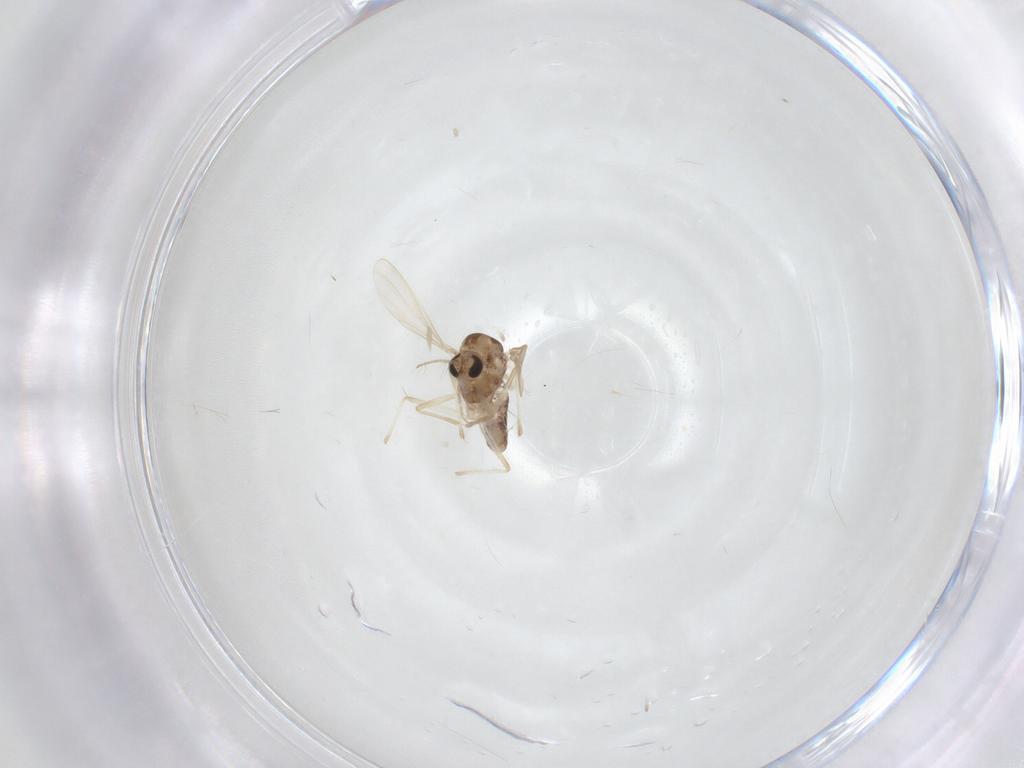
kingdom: Animalia
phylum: Arthropoda
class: Insecta
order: Diptera
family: Chironomidae
